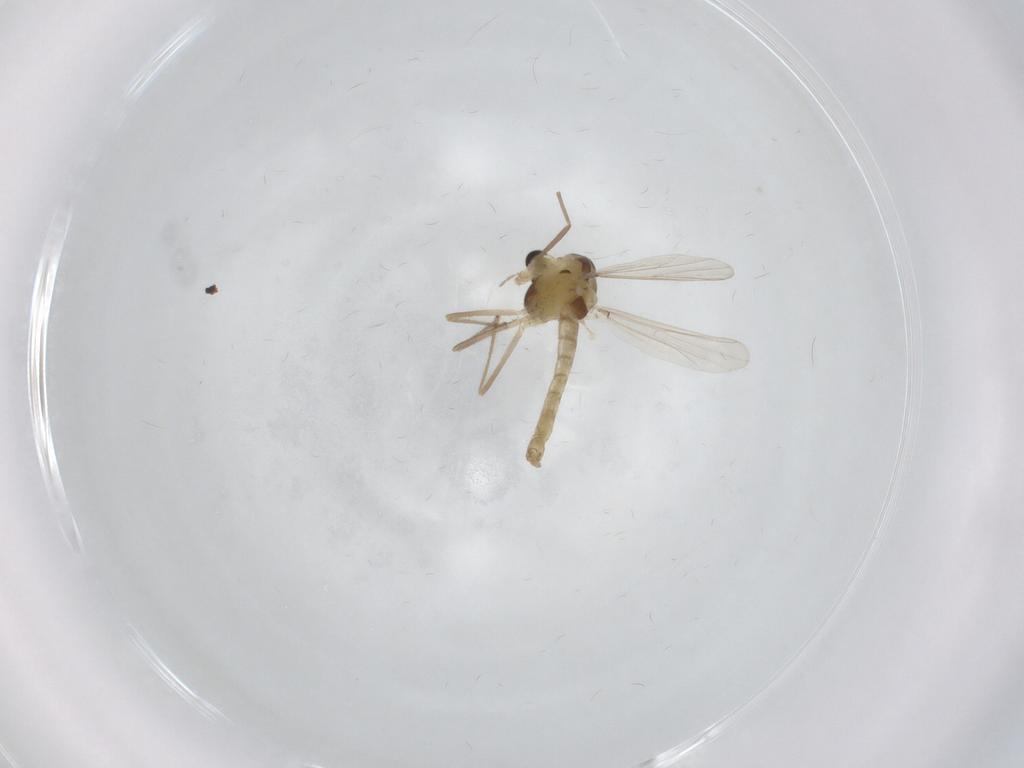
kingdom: Animalia
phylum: Arthropoda
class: Insecta
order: Diptera
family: Chironomidae
